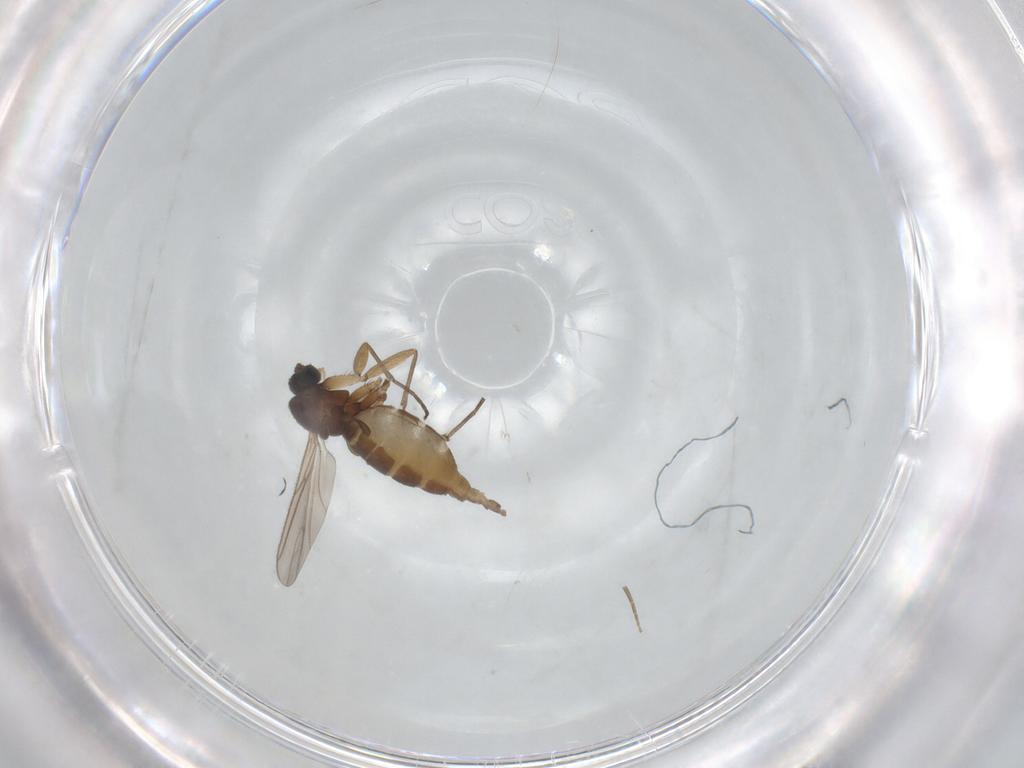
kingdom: Animalia
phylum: Arthropoda
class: Insecta
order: Diptera
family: Sciaridae
